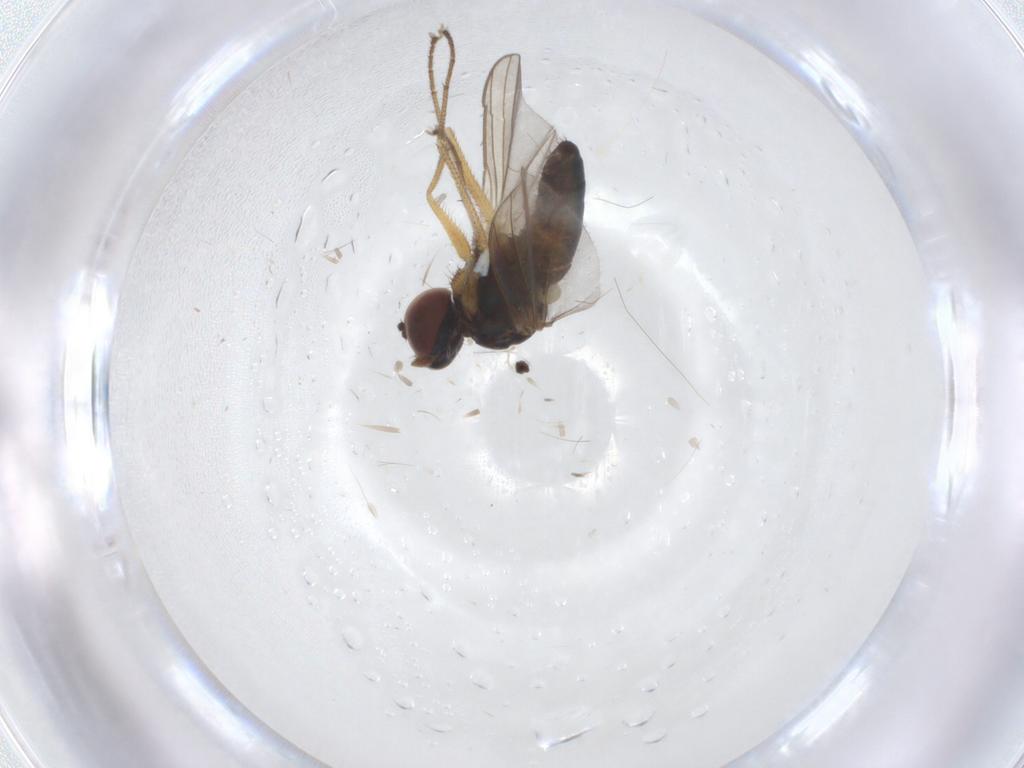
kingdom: Animalia
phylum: Arthropoda
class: Insecta
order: Diptera
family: Dolichopodidae
